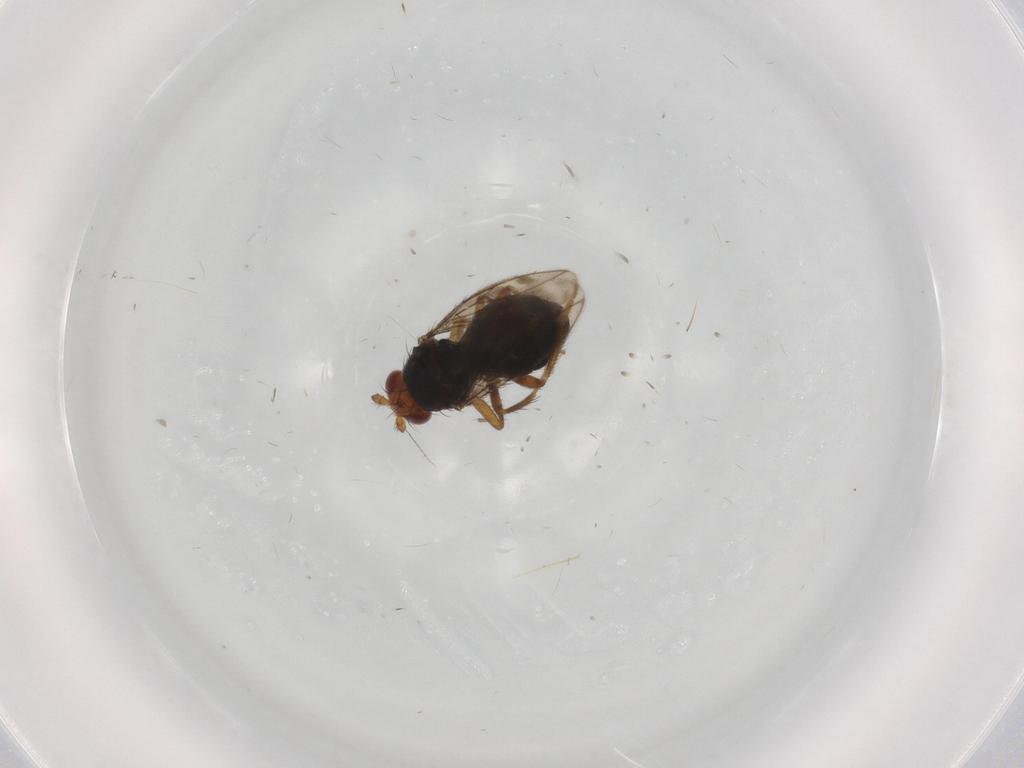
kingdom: Animalia
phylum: Arthropoda
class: Insecta
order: Diptera
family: Sphaeroceridae
